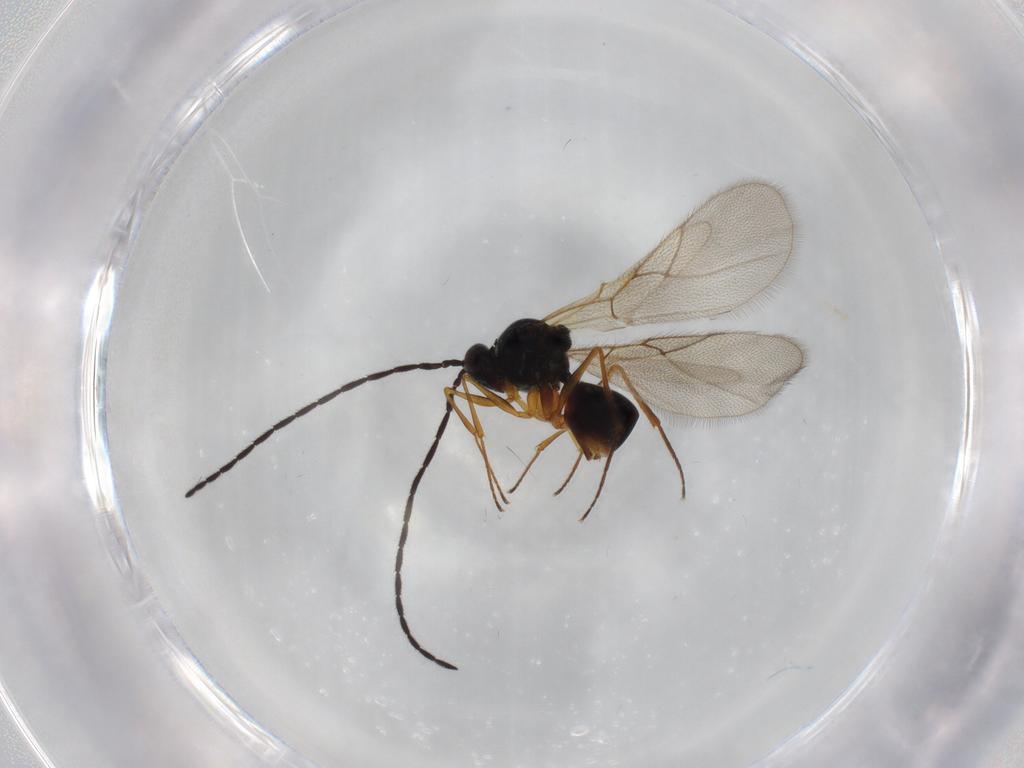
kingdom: Animalia
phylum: Arthropoda
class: Insecta
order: Hymenoptera
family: Figitidae
